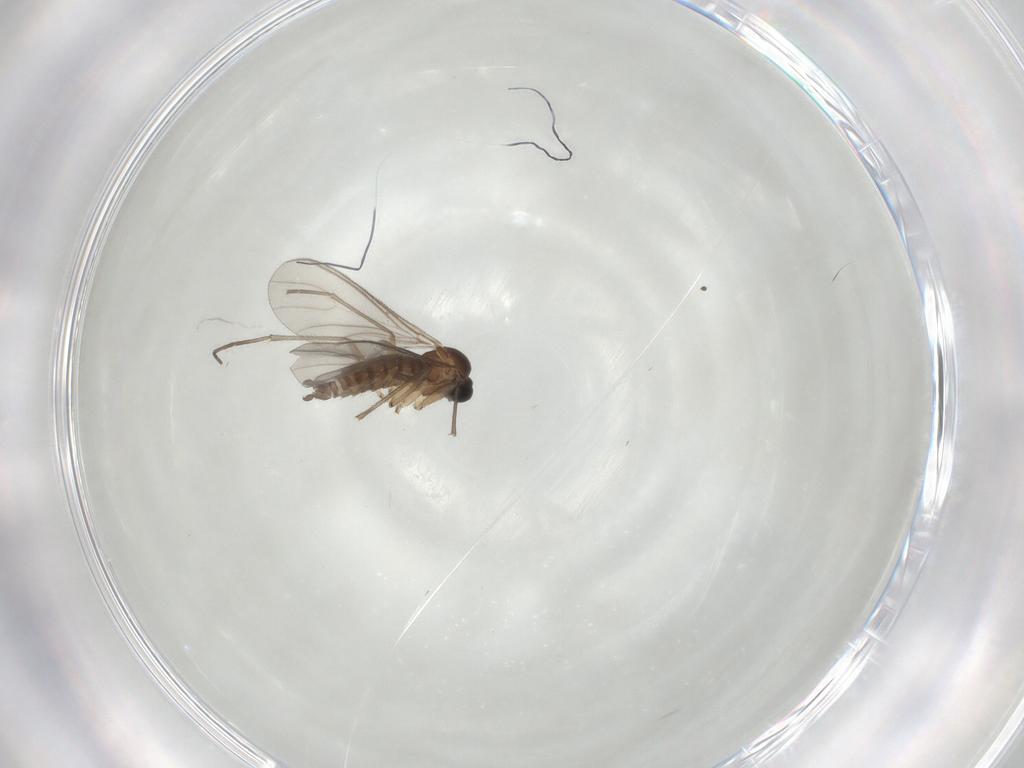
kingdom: Animalia
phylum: Arthropoda
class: Insecta
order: Diptera
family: Sciaridae
